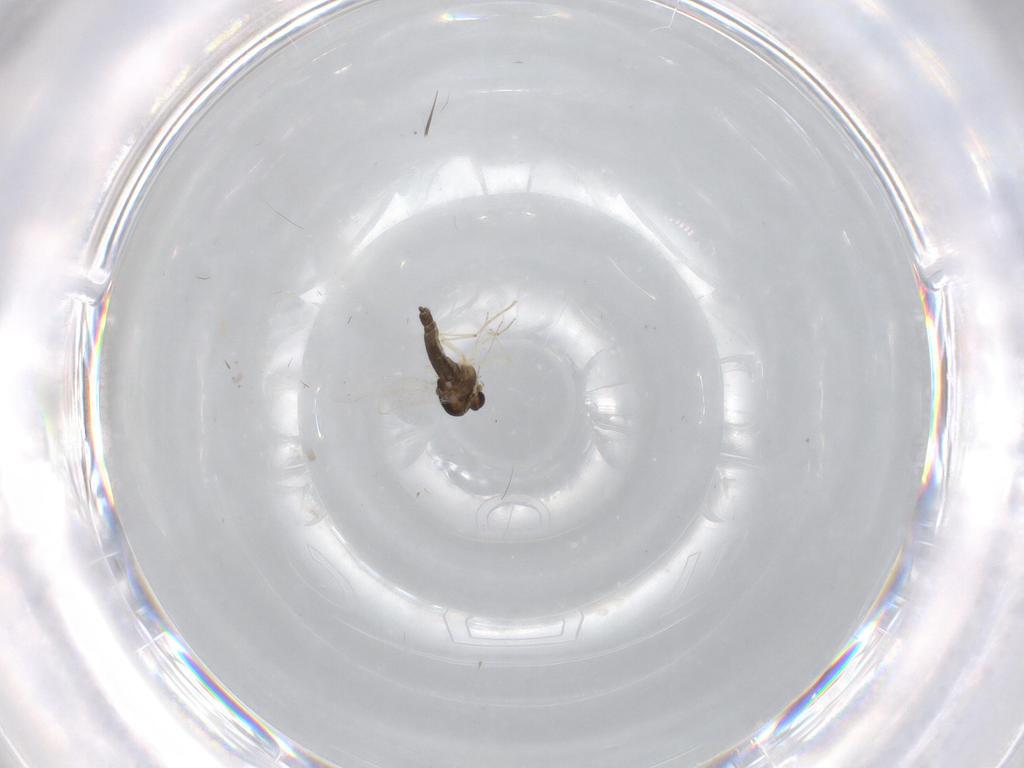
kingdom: Animalia
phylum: Arthropoda
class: Insecta
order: Diptera
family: Chironomidae
